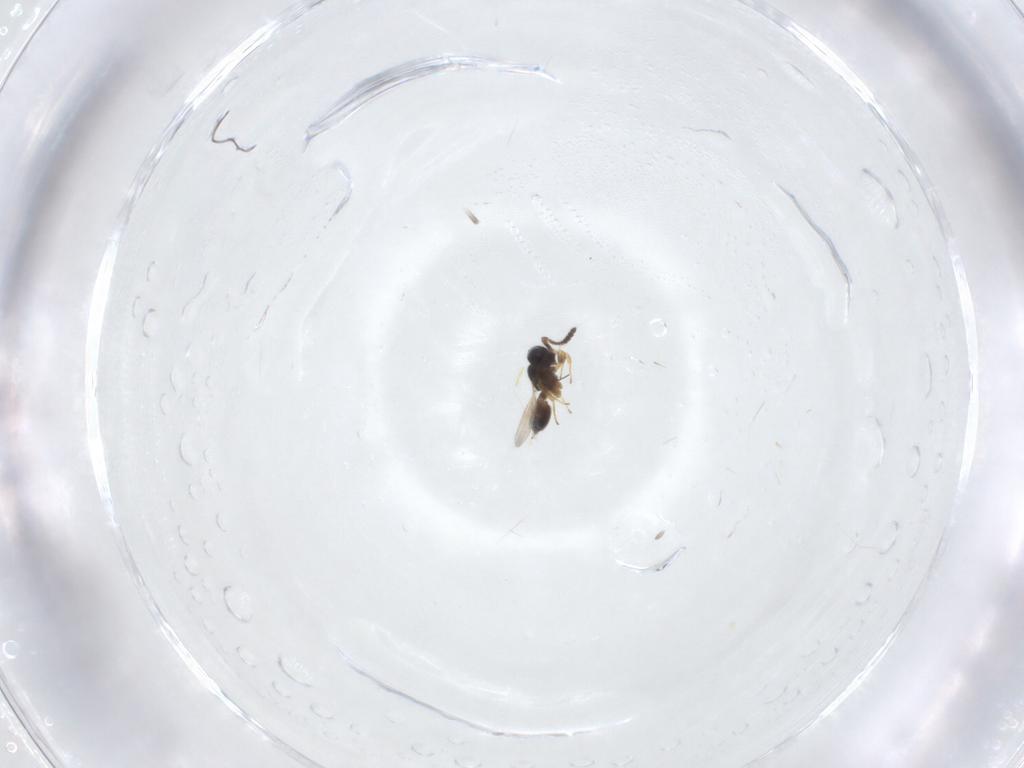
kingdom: Animalia
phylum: Arthropoda
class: Insecta
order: Hymenoptera
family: Scelionidae
